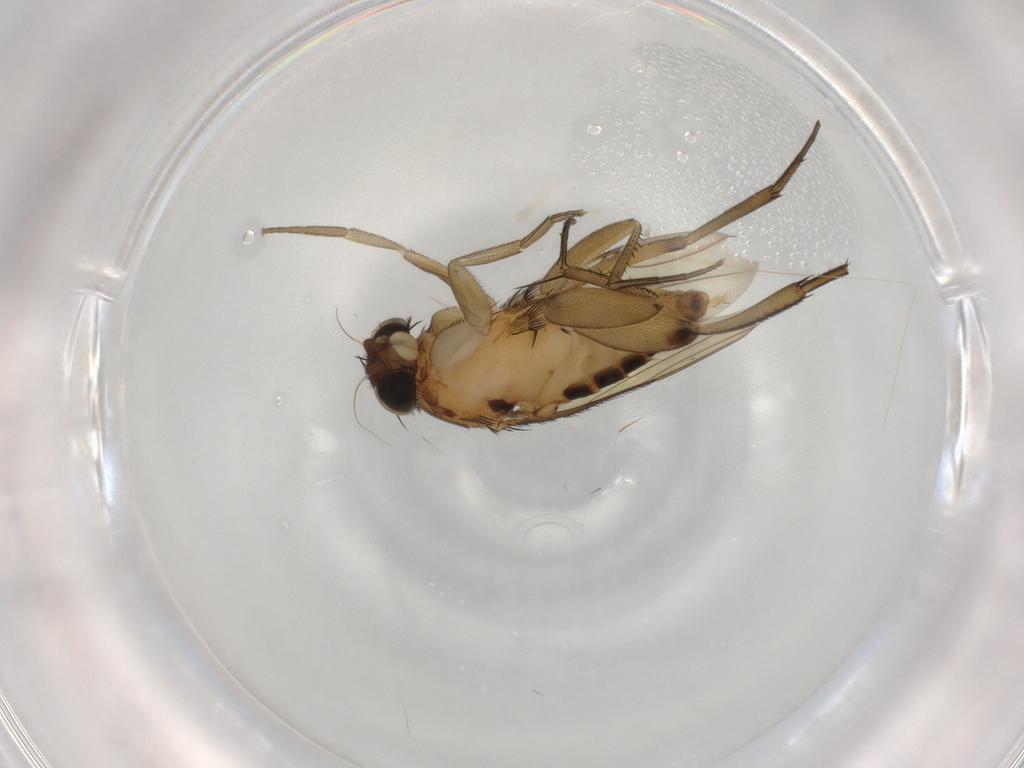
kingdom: Animalia
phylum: Arthropoda
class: Insecta
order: Diptera
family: Phoridae
